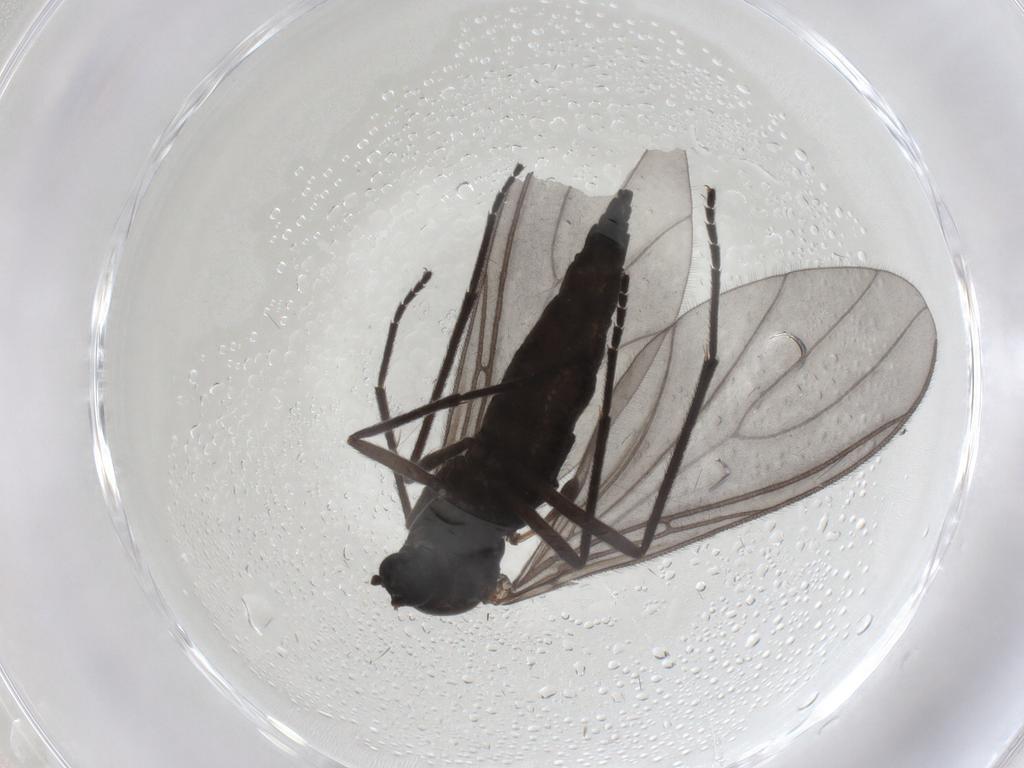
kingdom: Animalia
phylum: Arthropoda
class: Insecta
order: Diptera
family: Sciaridae
